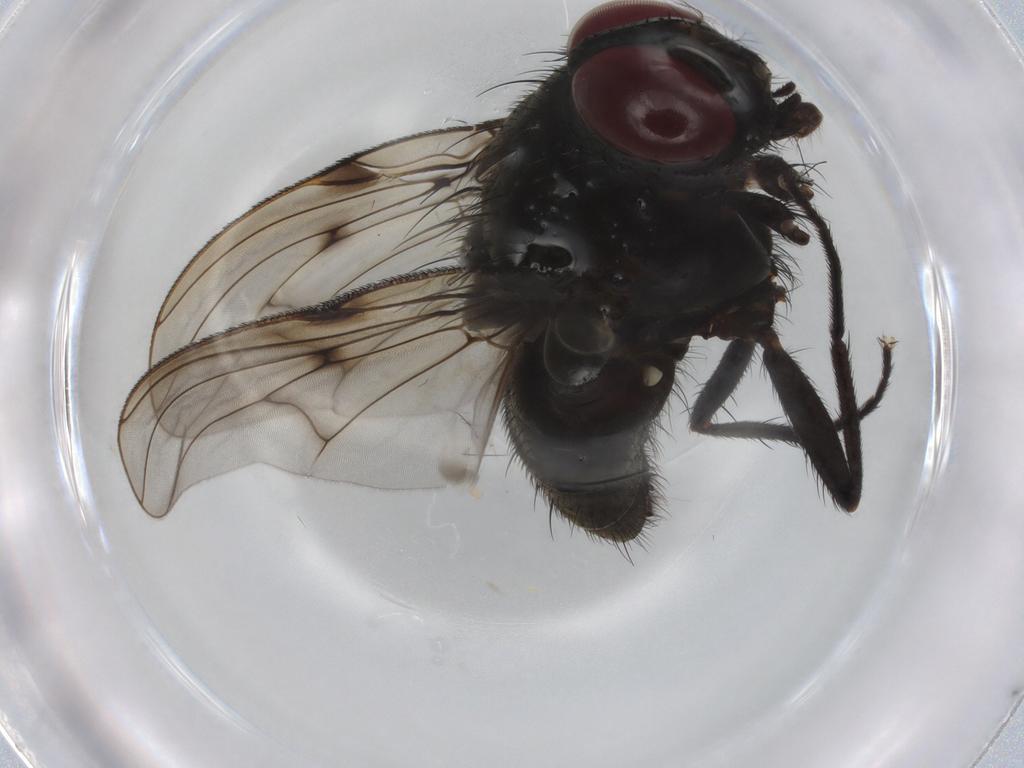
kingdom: Animalia
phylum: Arthropoda
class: Insecta
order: Diptera
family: Muscidae
